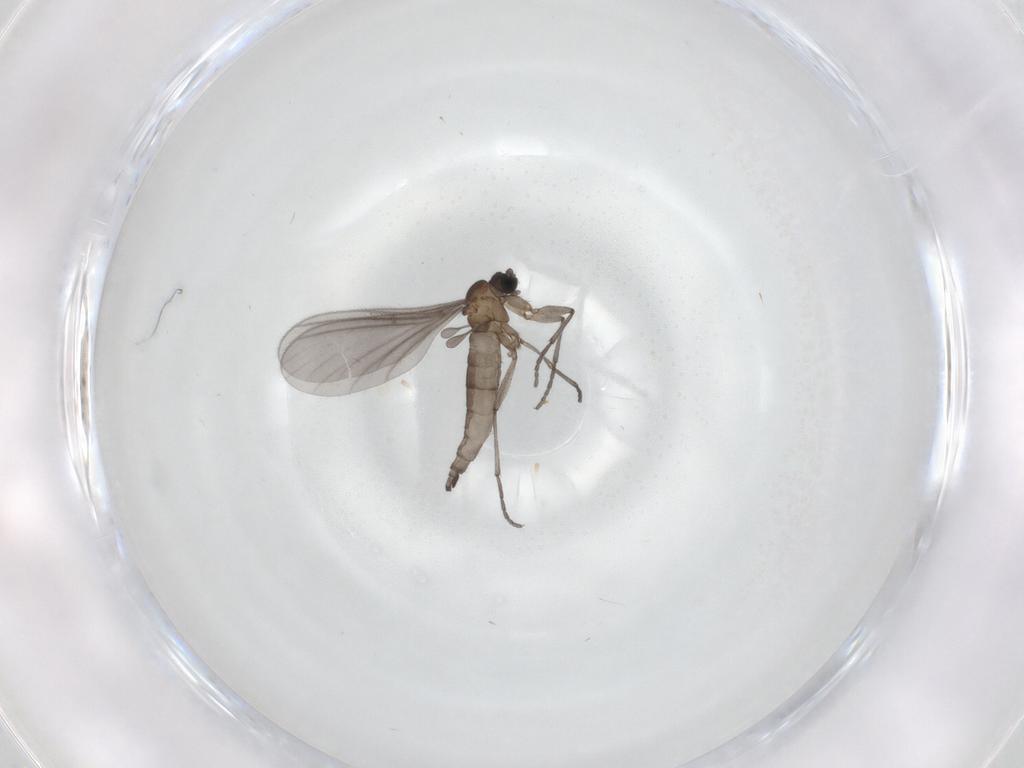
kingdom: Animalia
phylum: Arthropoda
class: Insecta
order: Diptera
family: Sciaridae
